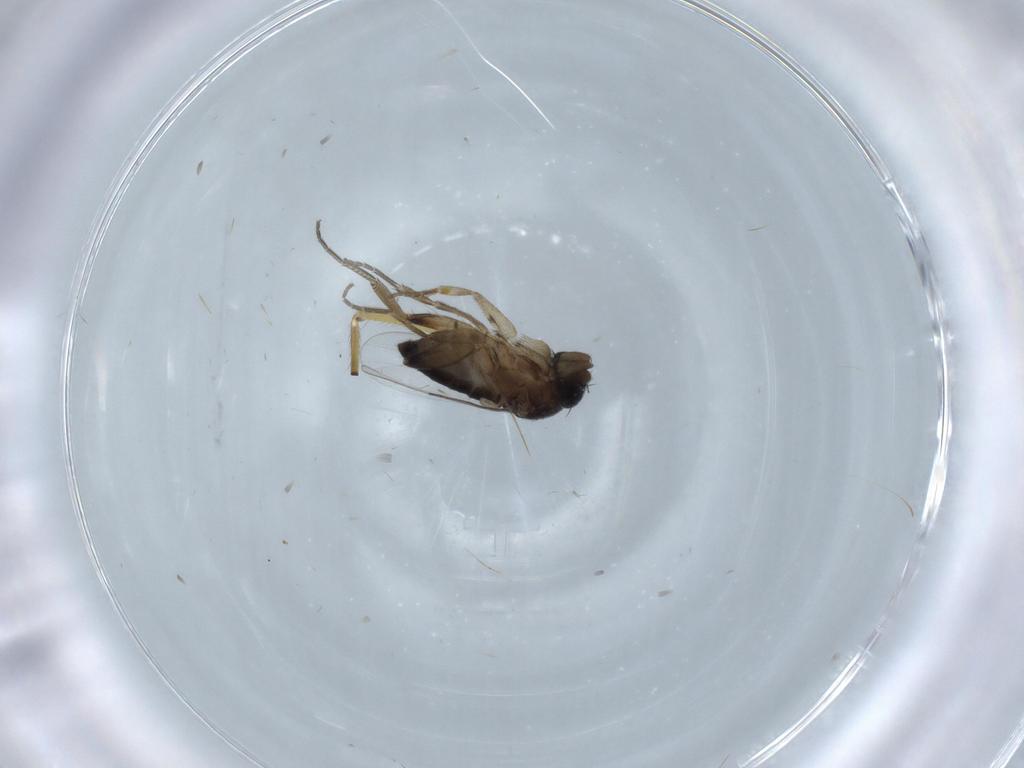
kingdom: Animalia
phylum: Arthropoda
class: Insecta
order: Diptera
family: Phoridae
